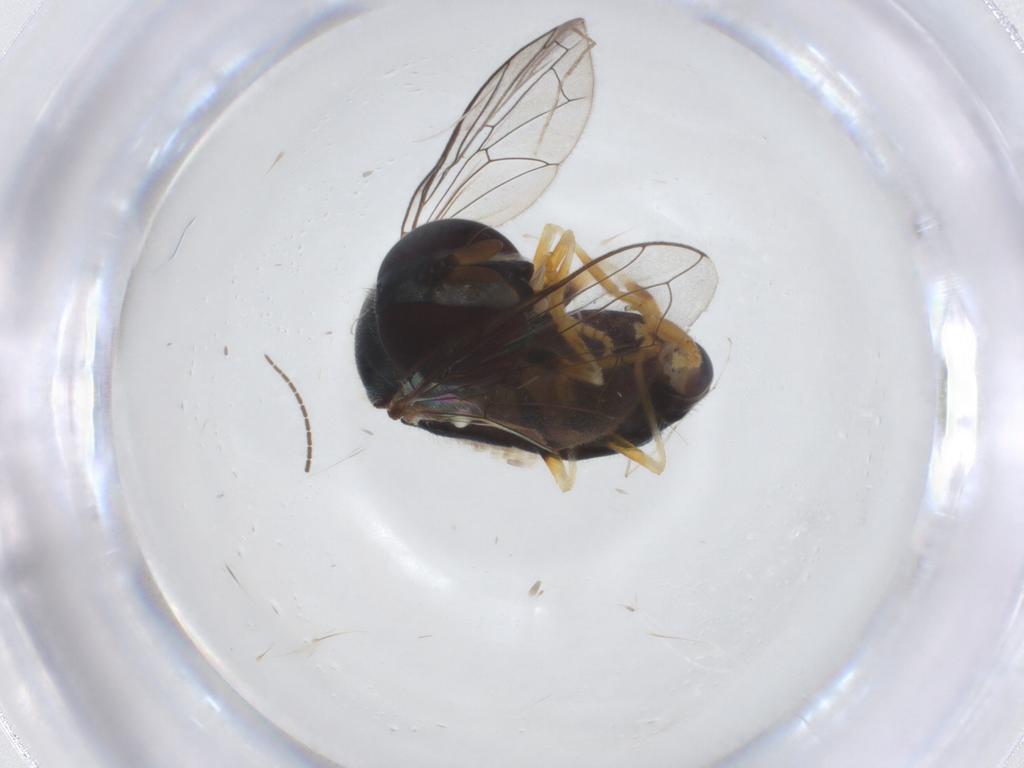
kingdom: Animalia
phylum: Arthropoda
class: Insecta
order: Diptera
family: Syrphidae
